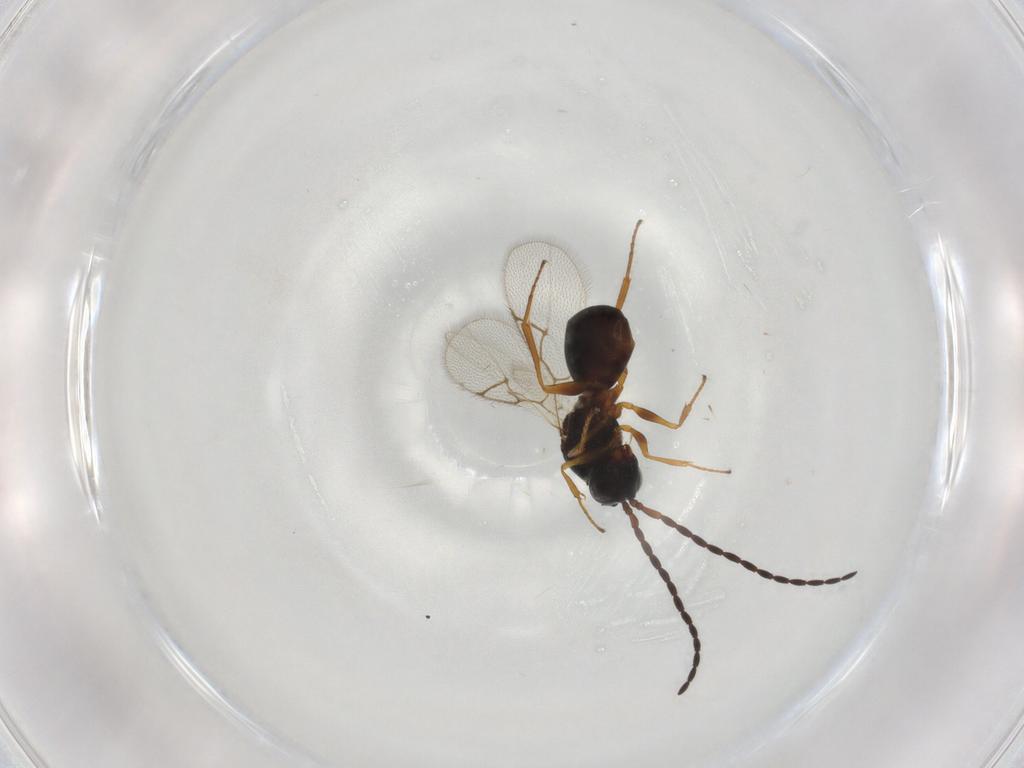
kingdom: Animalia
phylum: Arthropoda
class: Insecta
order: Hymenoptera
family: Figitidae
